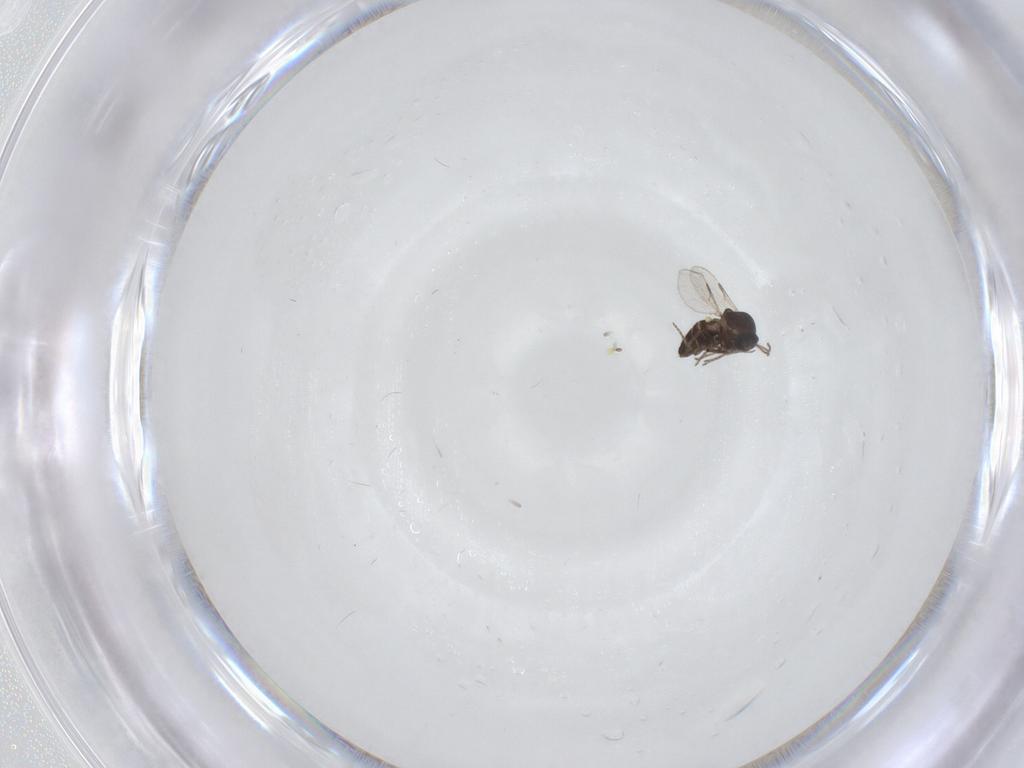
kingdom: Animalia
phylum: Arthropoda
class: Insecta
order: Diptera
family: Ceratopogonidae
